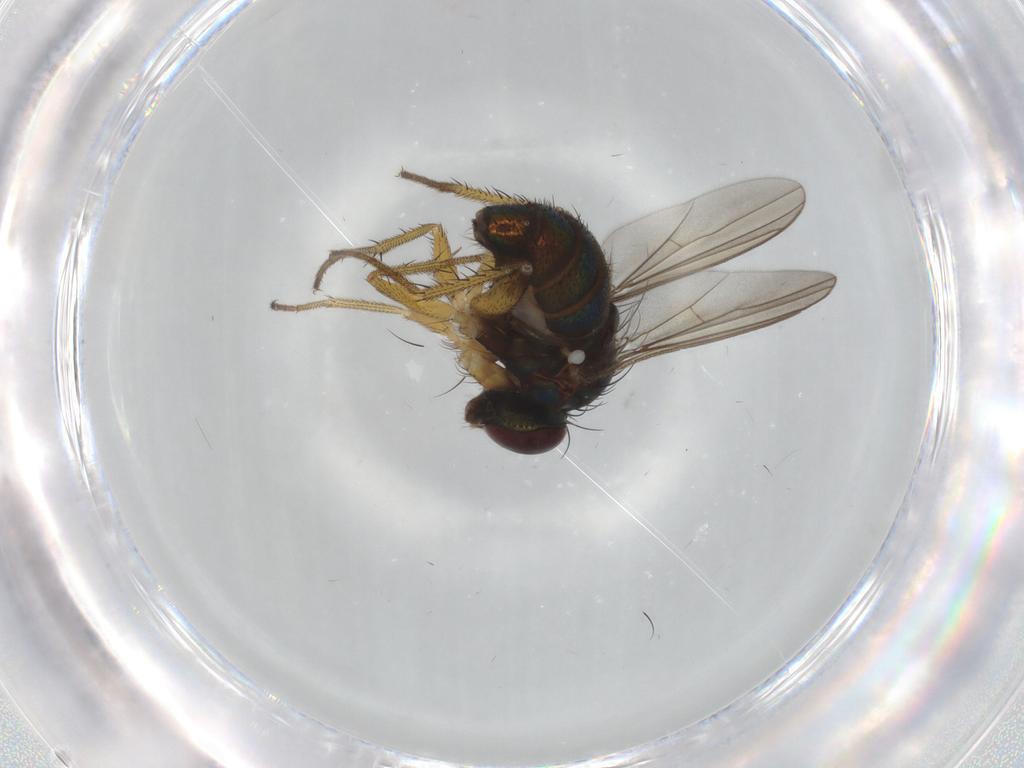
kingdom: Animalia
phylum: Arthropoda
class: Insecta
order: Diptera
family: Dolichopodidae
